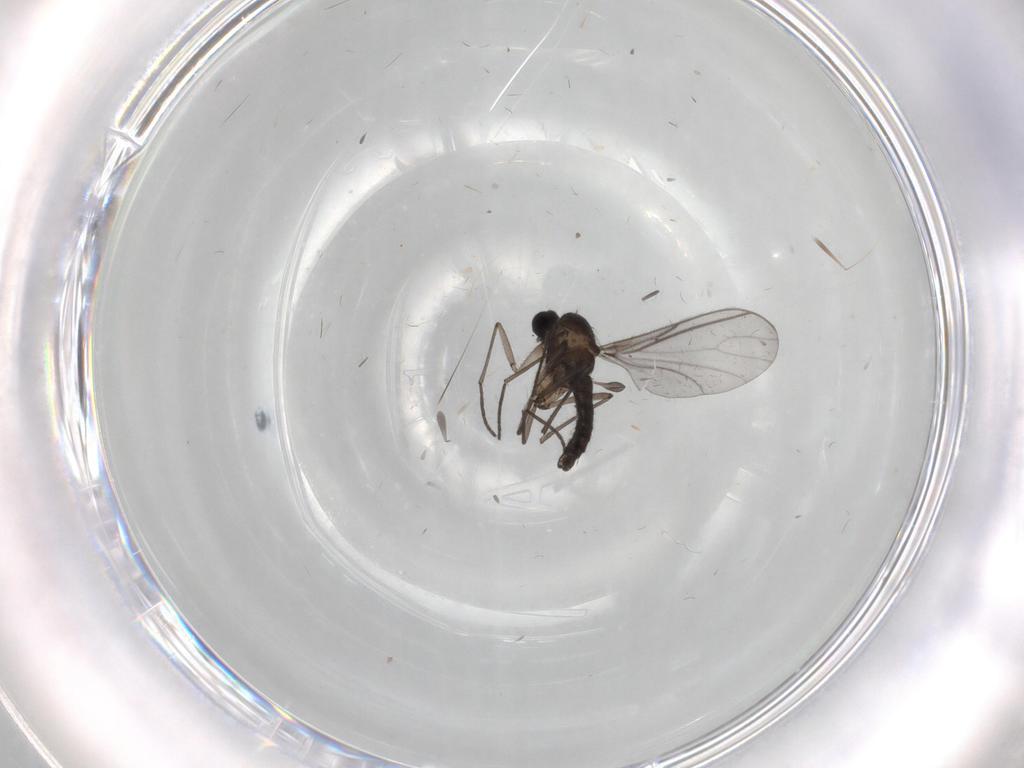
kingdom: Animalia
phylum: Arthropoda
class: Insecta
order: Diptera
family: Sciaridae
